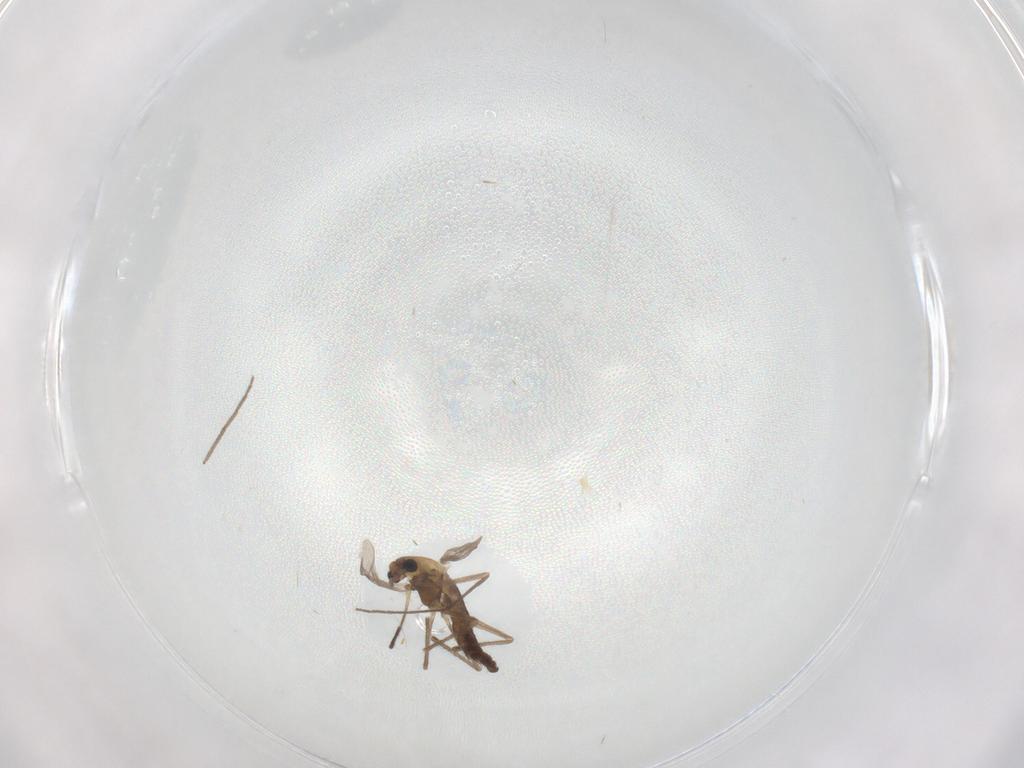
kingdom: Animalia
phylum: Arthropoda
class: Insecta
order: Diptera
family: Chironomidae
